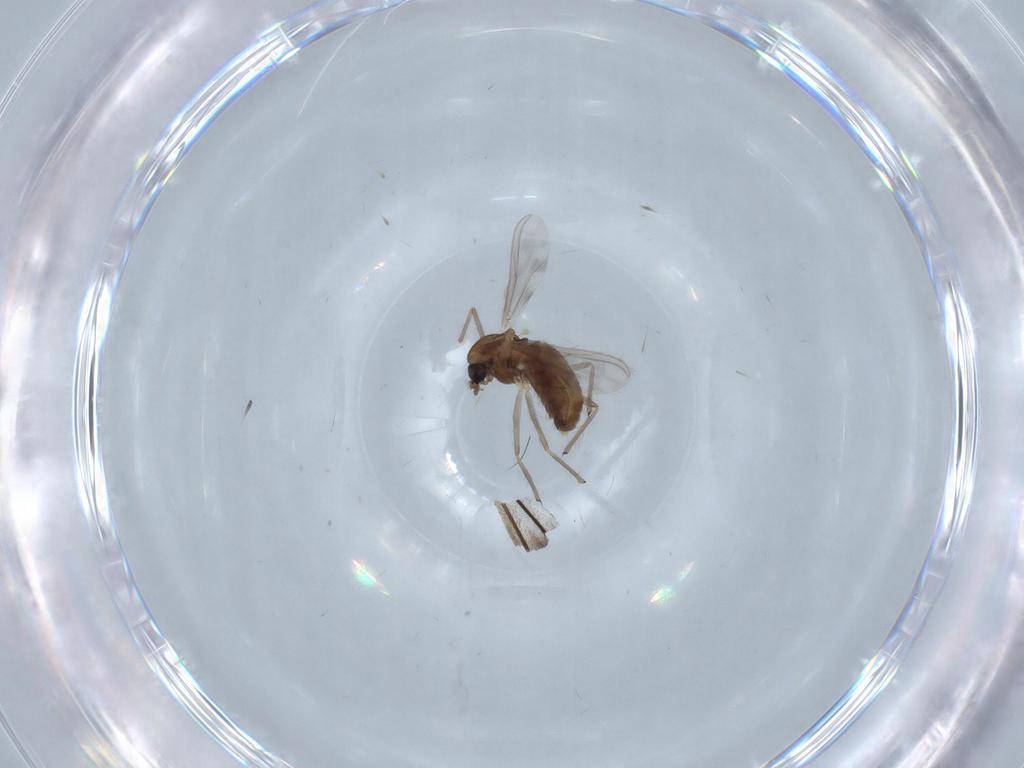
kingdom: Animalia
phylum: Arthropoda
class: Insecta
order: Diptera
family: Chironomidae
